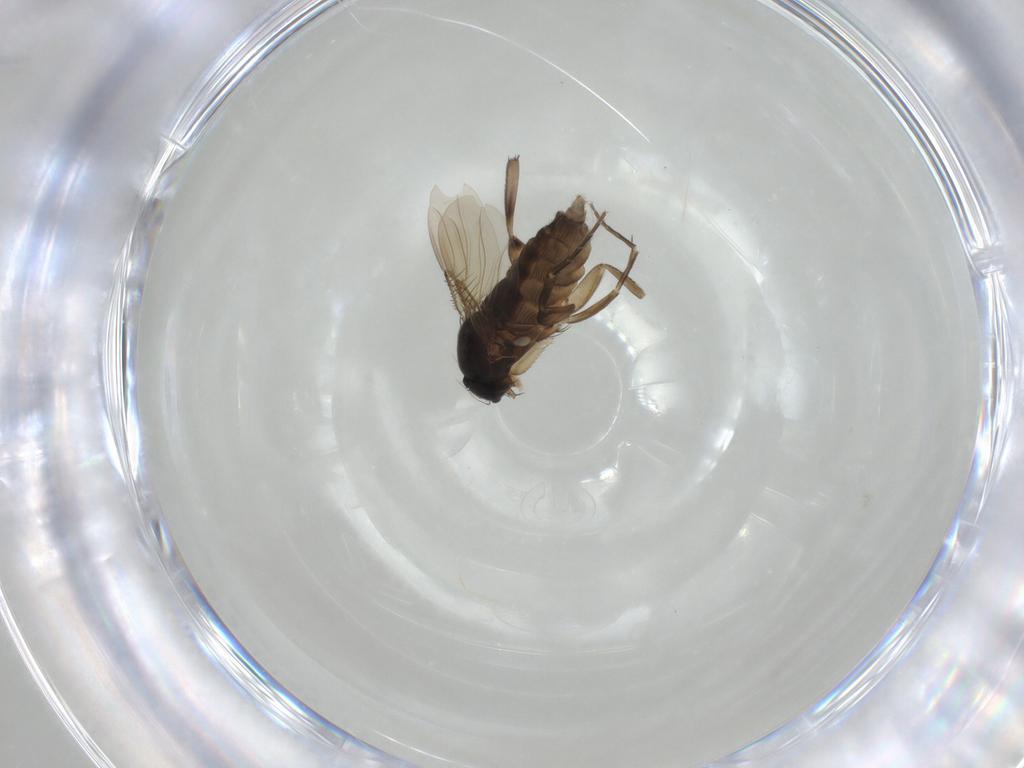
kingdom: Animalia
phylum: Arthropoda
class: Insecta
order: Diptera
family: Phoridae
